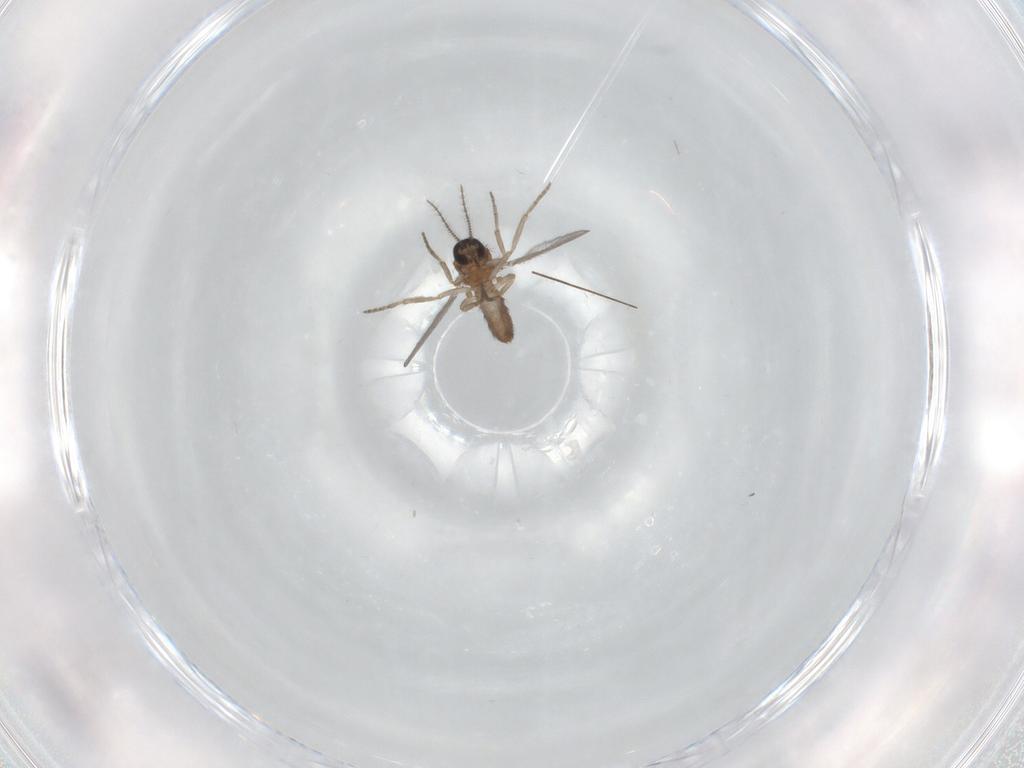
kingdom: Animalia
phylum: Arthropoda
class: Insecta
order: Diptera
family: Ceratopogonidae
